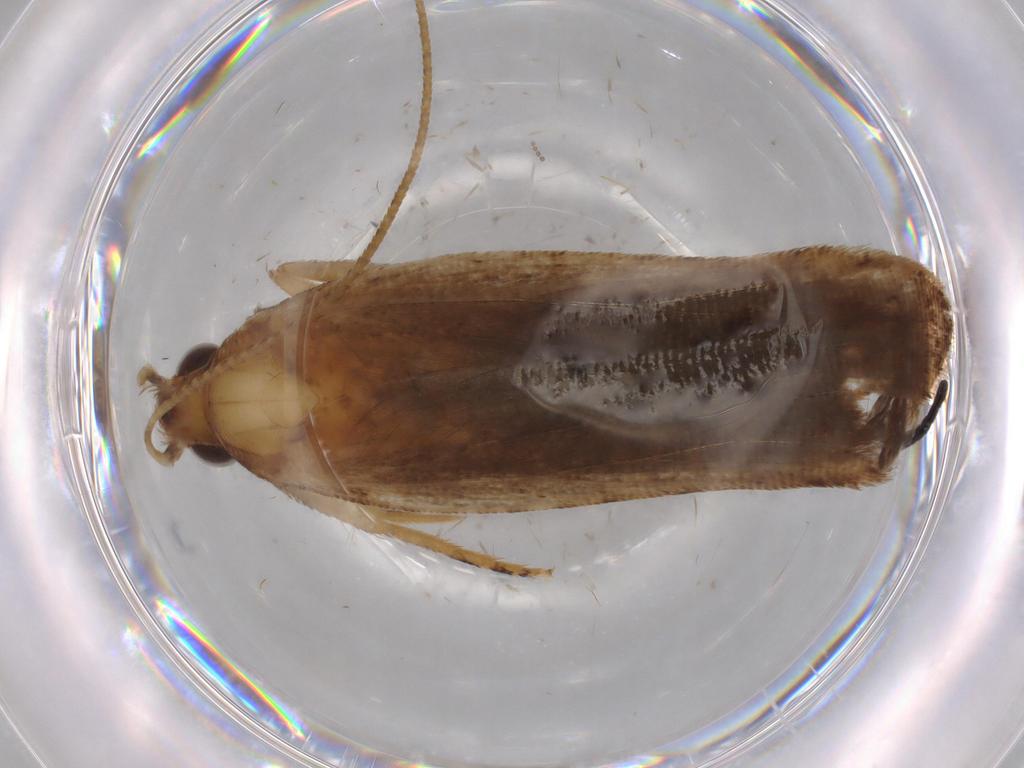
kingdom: Animalia
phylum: Arthropoda
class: Insecta
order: Lepidoptera
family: Gelechiidae
